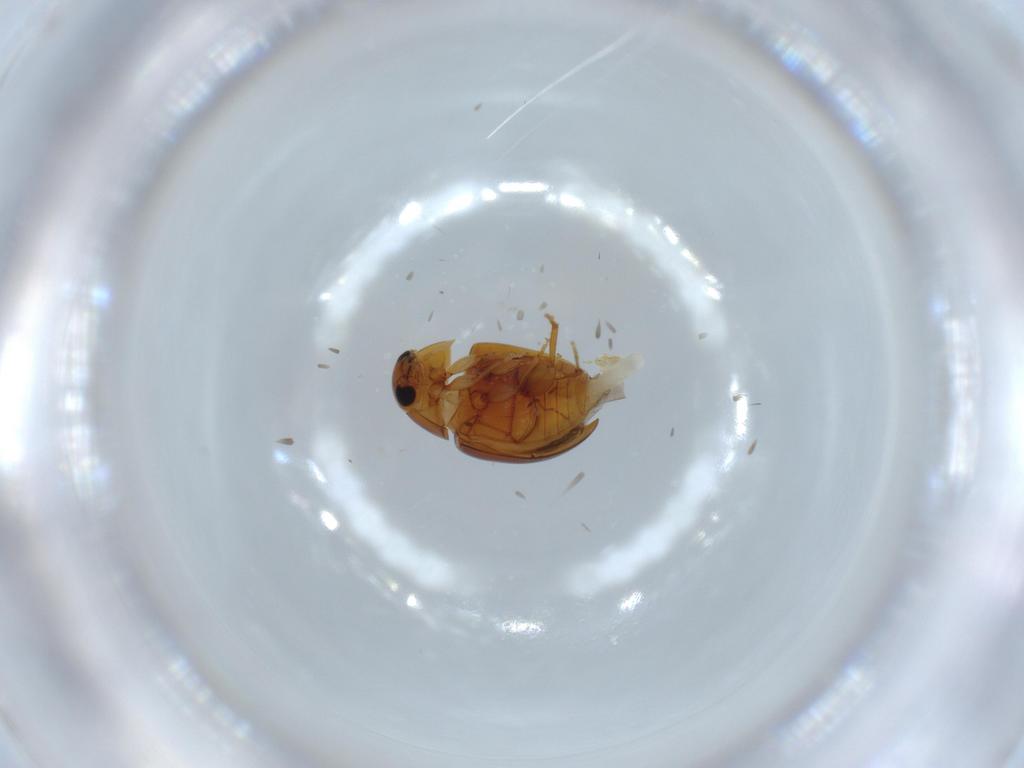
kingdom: Animalia
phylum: Arthropoda
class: Insecta
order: Coleoptera
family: Phalacridae
